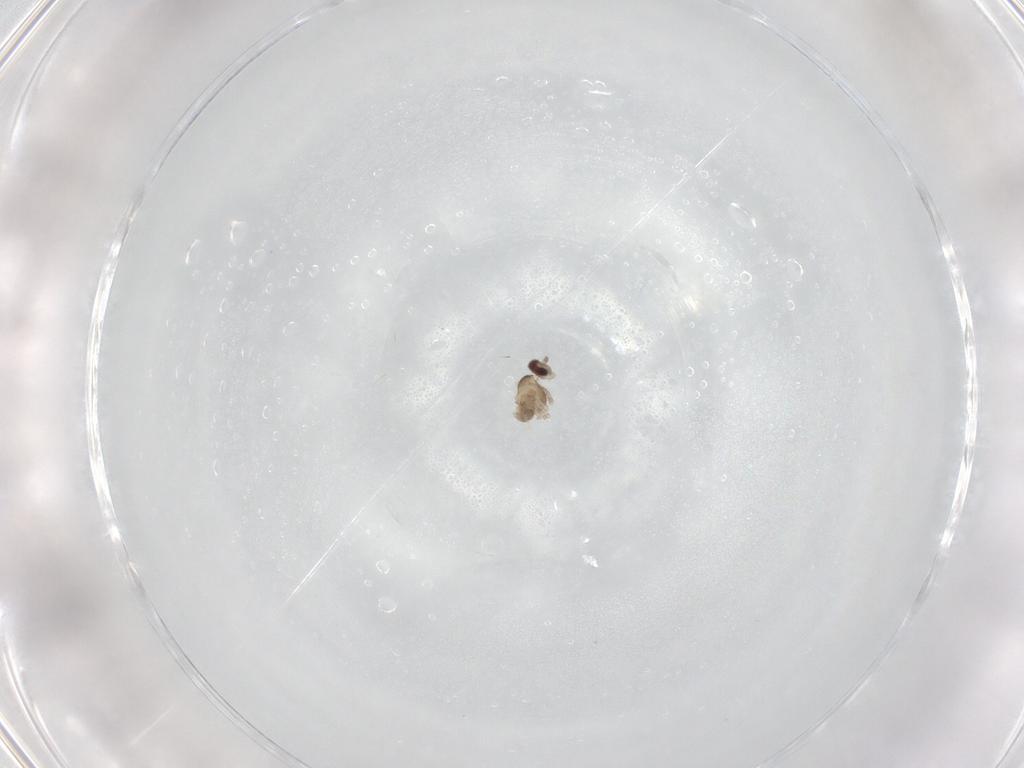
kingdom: Animalia
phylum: Arthropoda
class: Insecta
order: Diptera
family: Cecidomyiidae
